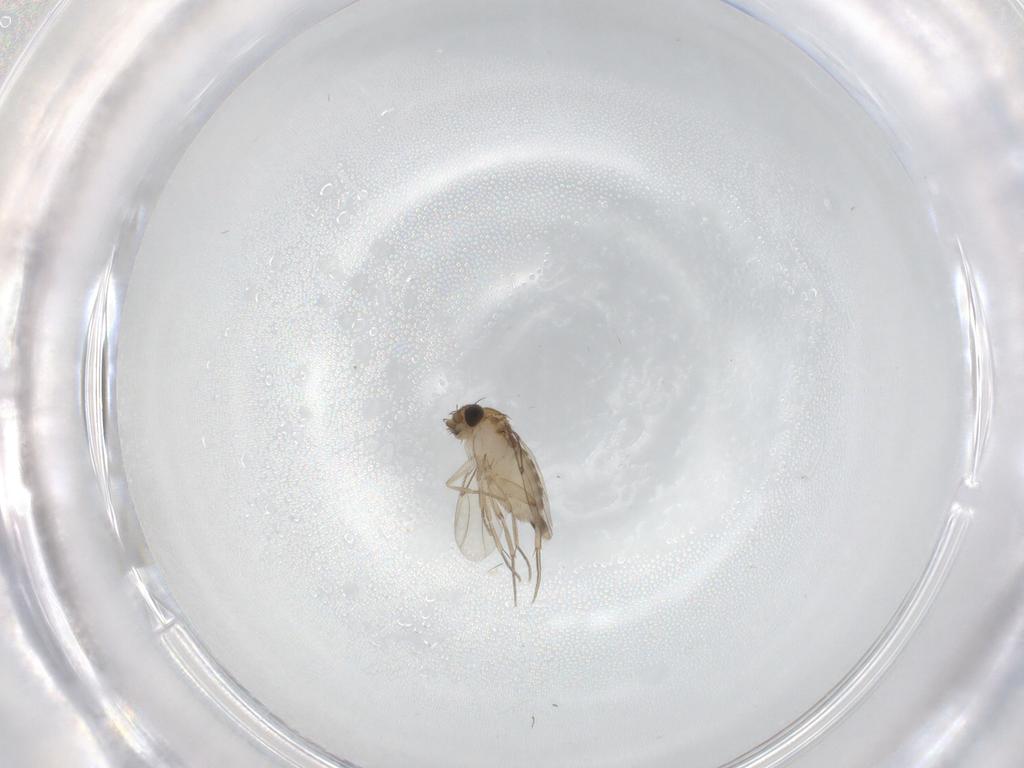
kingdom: Animalia
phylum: Arthropoda
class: Insecta
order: Diptera
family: Phoridae
